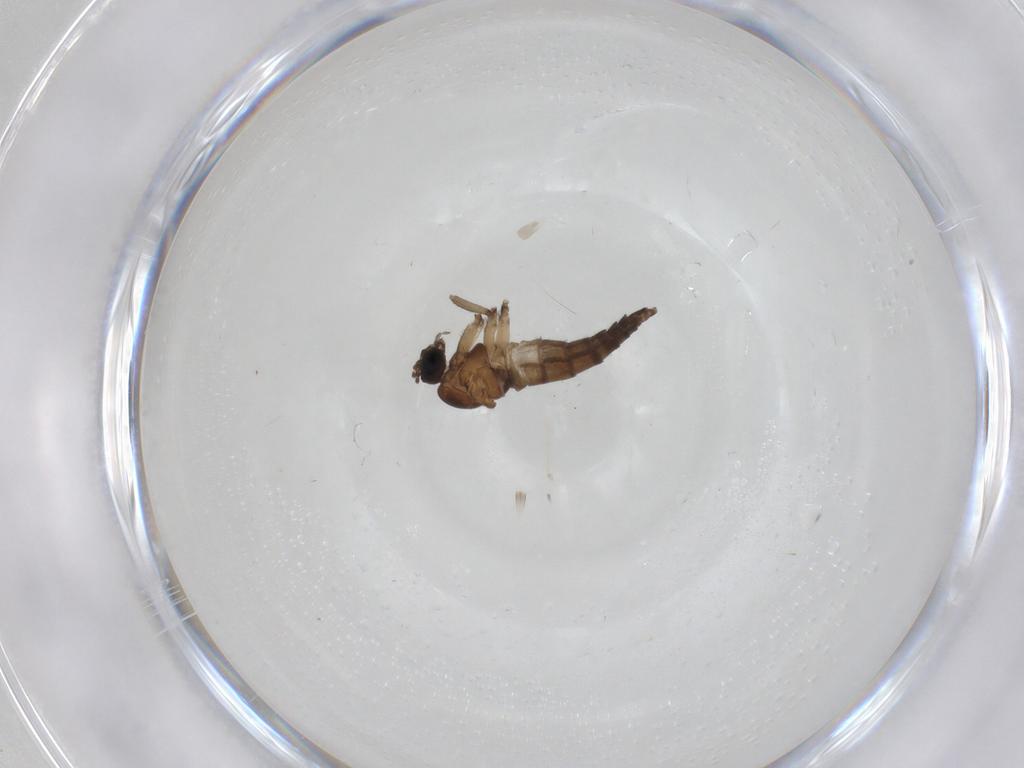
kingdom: Animalia
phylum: Arthropoda
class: Insecta
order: Diptera
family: Sciaridae
